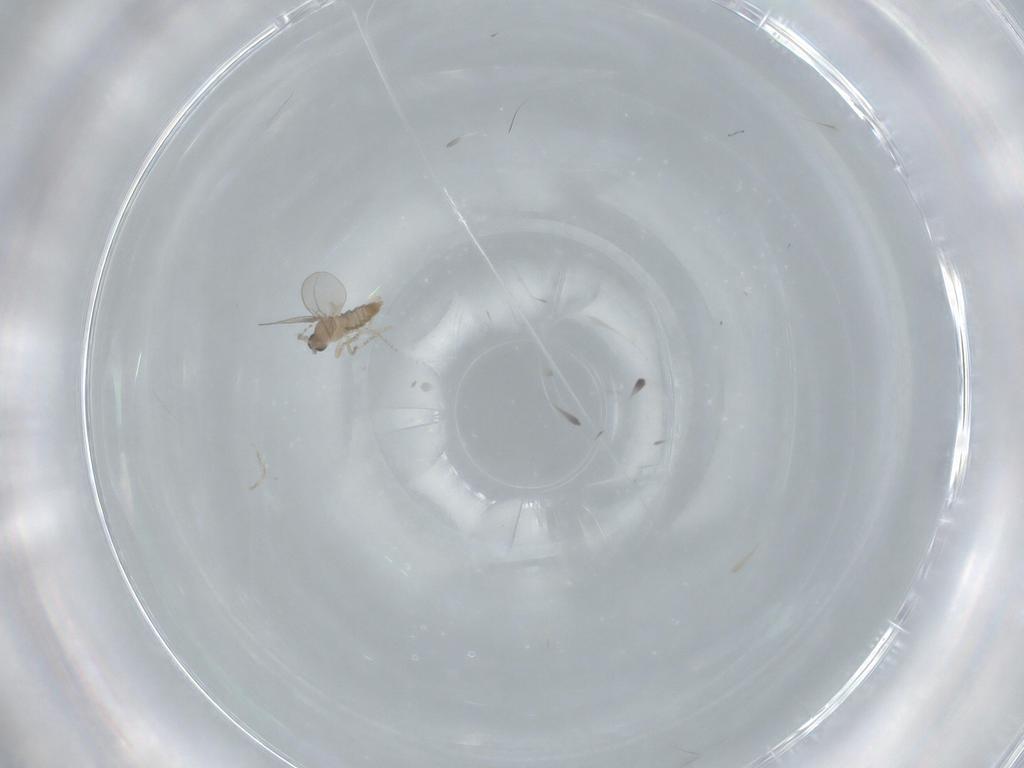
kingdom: Animalia
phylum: Arthropoda
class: Insecta
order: Diptera
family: Cecidomyiidae
